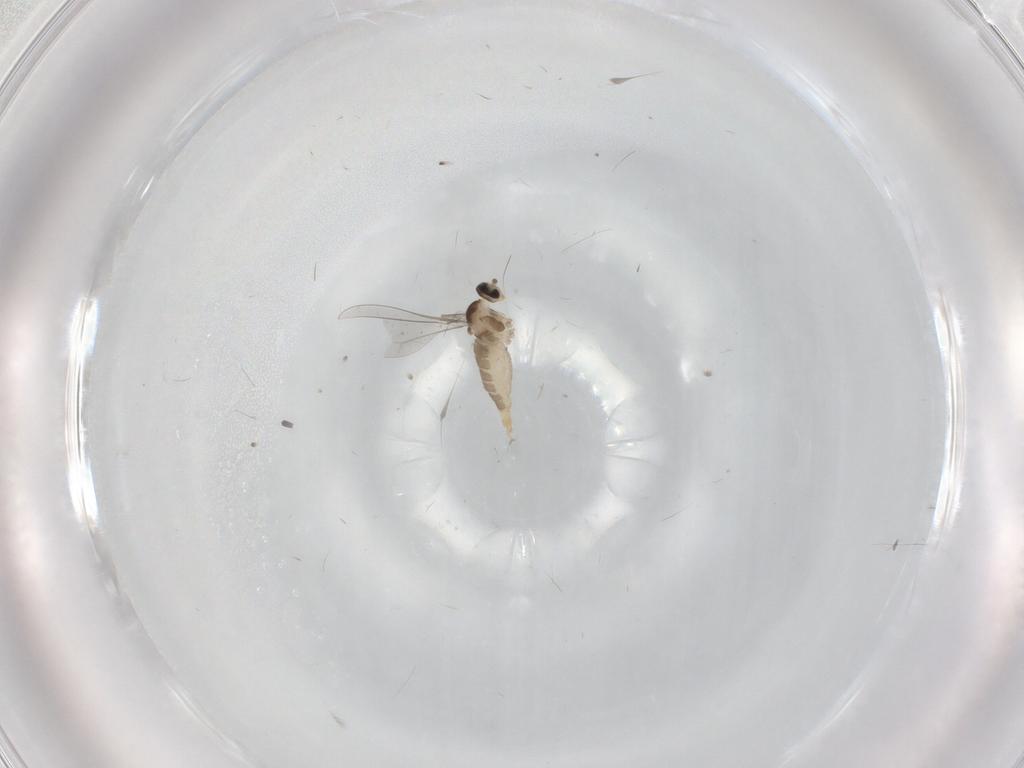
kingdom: Animalia
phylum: Arthropoda
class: Insecta
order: Diptera
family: Cecidomyiidae
